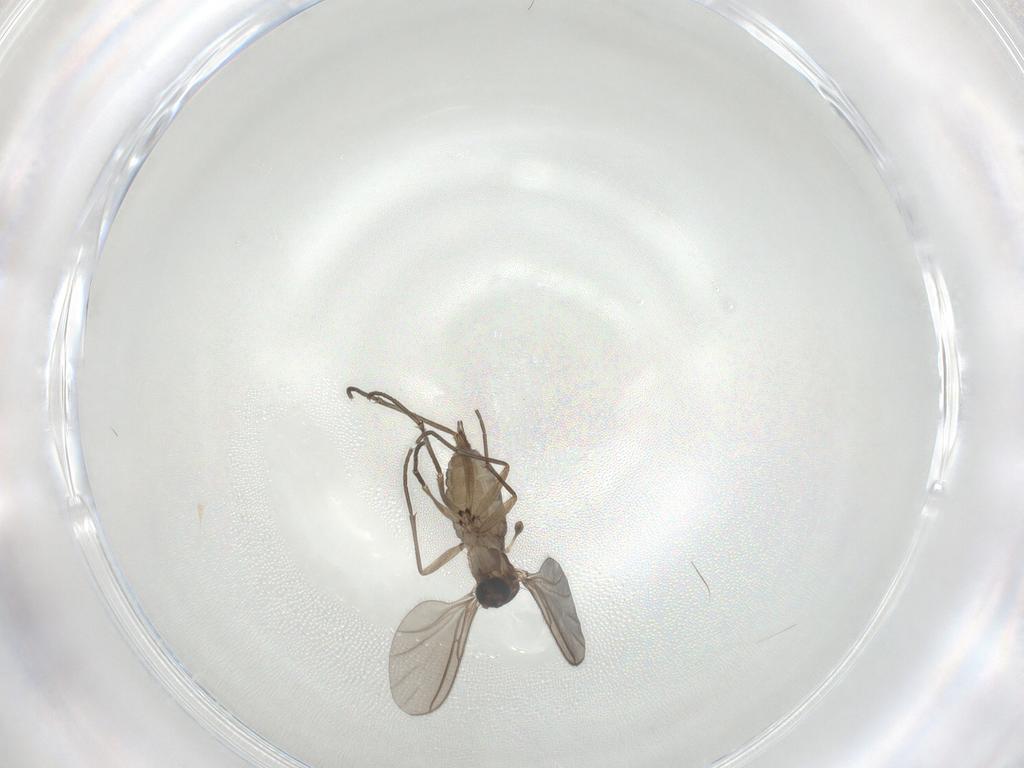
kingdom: Animalia
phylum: Arthropoda
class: Insecta
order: Diptera
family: Sciaridae
